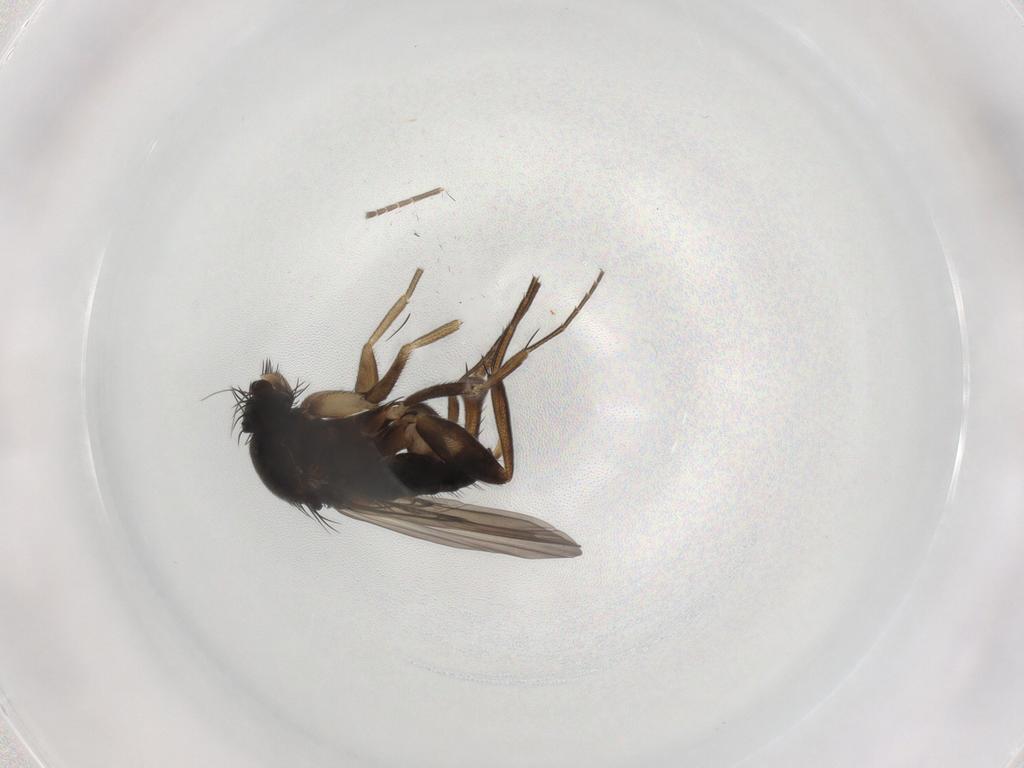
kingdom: Animalia
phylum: Arthropoda
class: Insecta
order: Diptera
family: Phoridae
